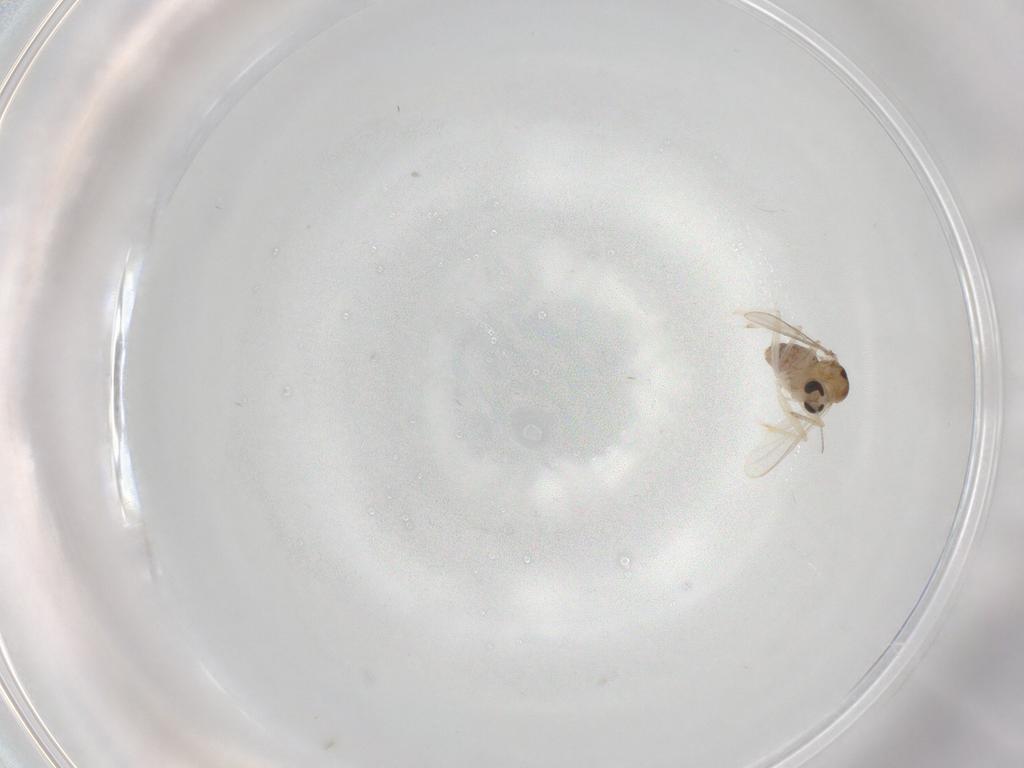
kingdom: Animalia
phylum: Arthropoda
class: Insecta
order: Diptera
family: Chironomidae
